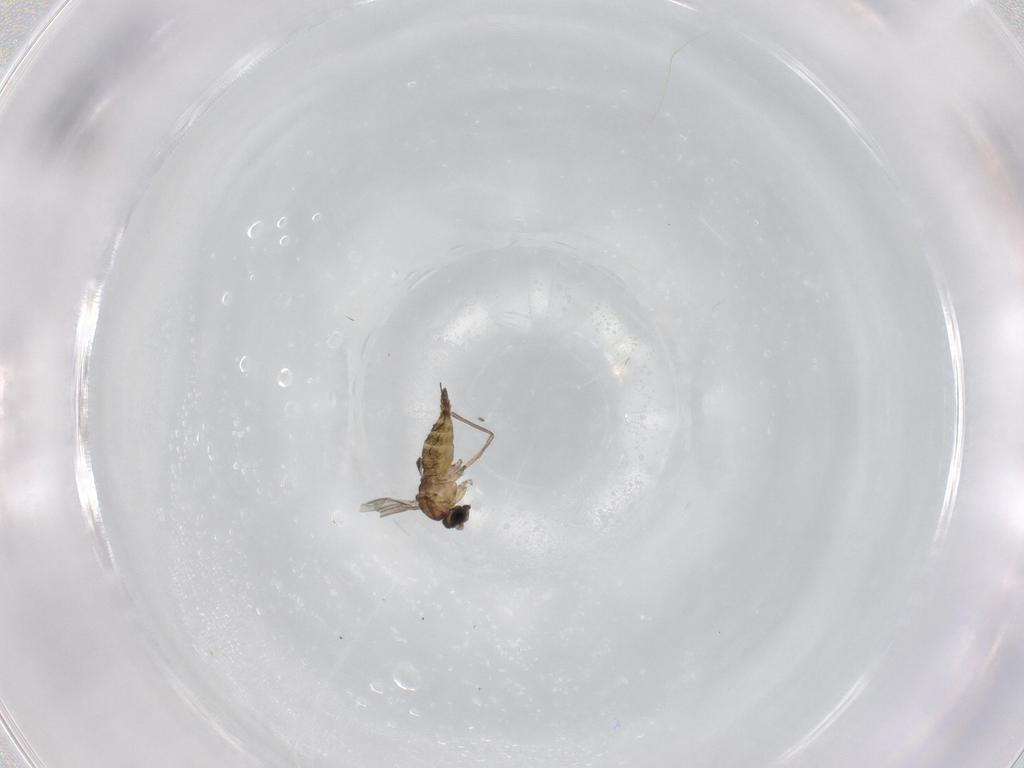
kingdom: Animalia
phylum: Arthropoda
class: Insecta
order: Diptera
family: Sciaridae
